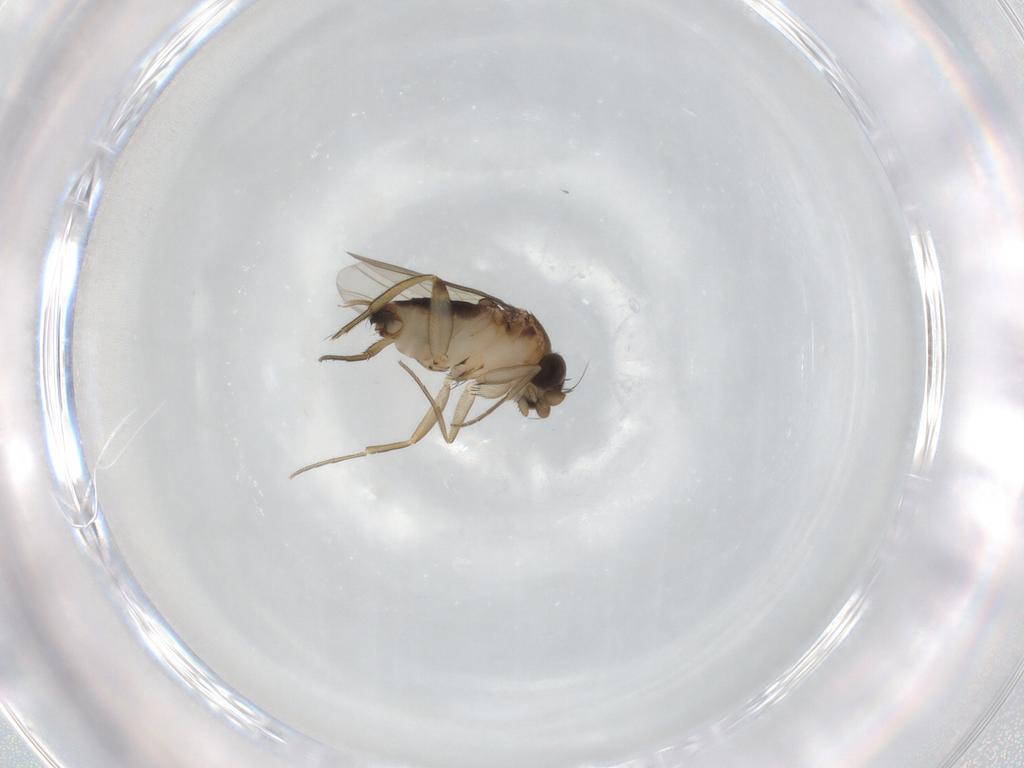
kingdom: Animalia
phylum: Arthropoda
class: Insecta
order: Diptera
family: Phoridae
